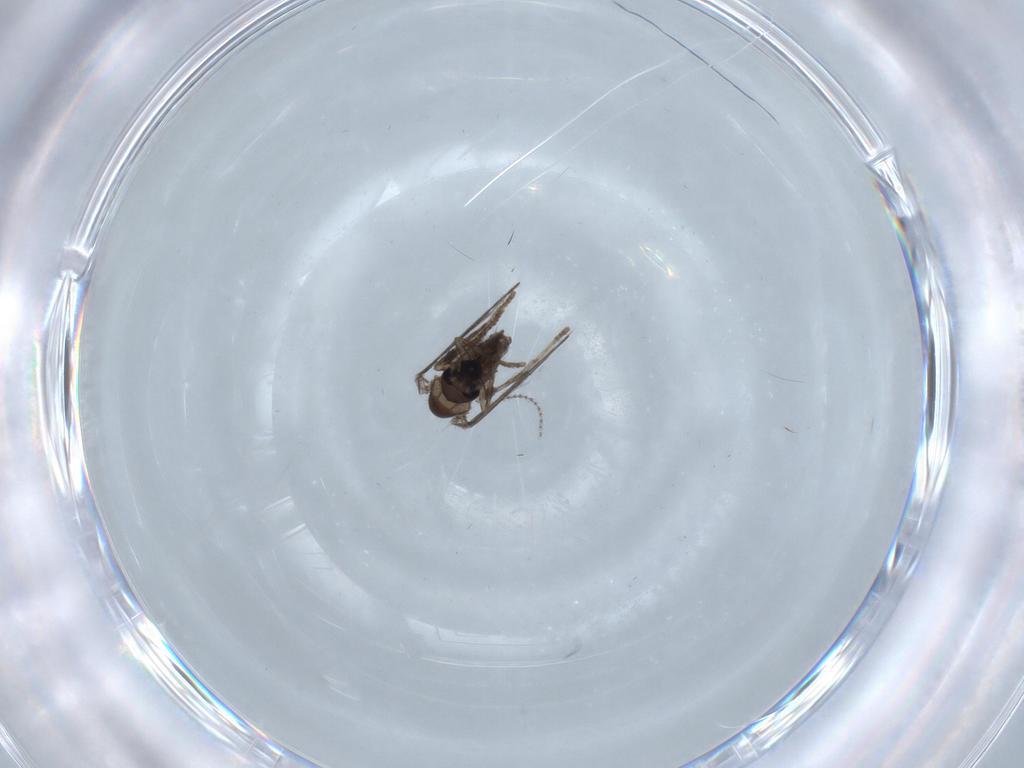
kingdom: Animalia
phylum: Arthropoda
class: Insecta
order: Diptera
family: Psychodidae
